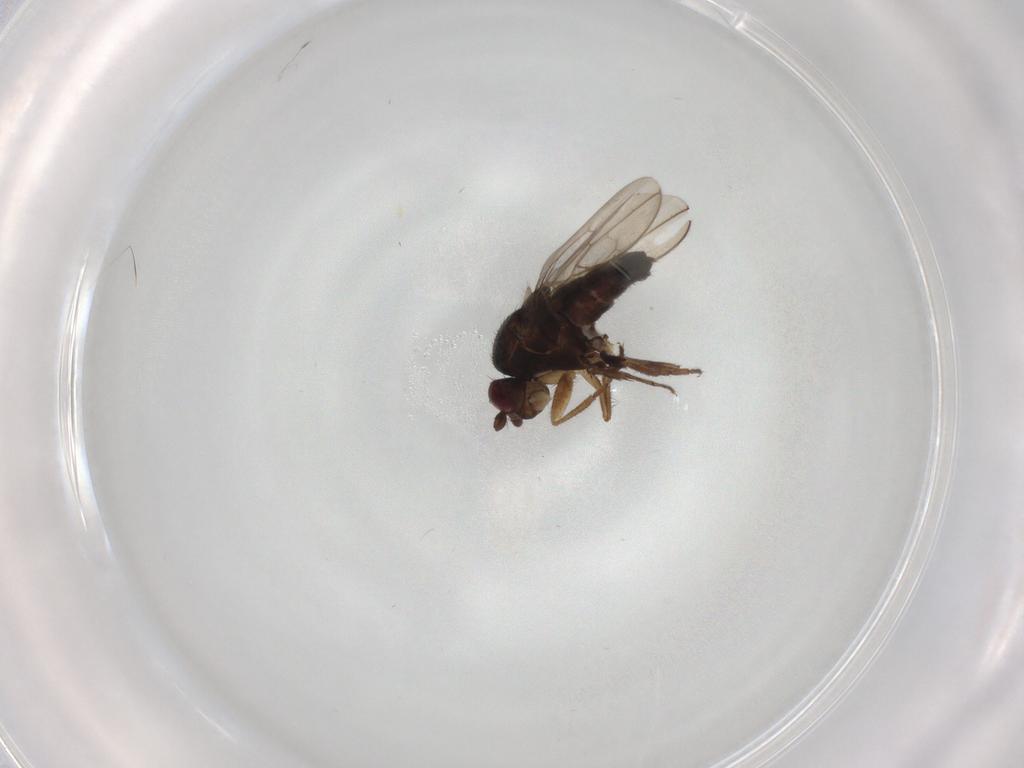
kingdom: Animalia
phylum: Arthropoda
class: Insecta
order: Diptera
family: Sphaeroceridae
